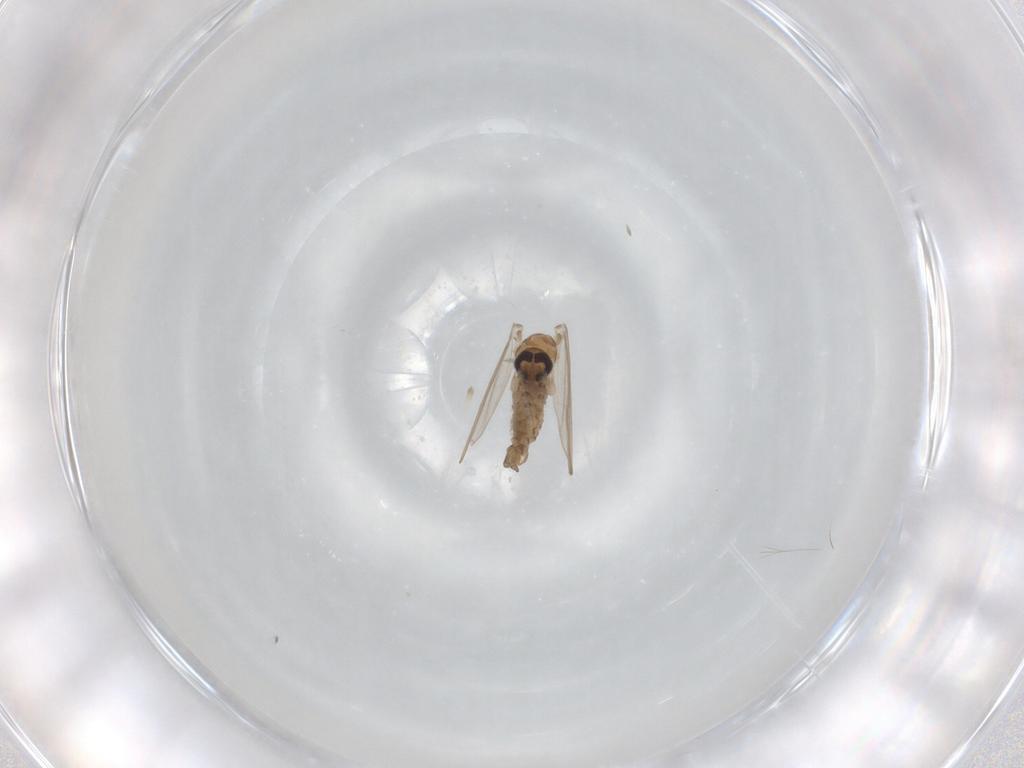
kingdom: Animalia
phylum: Arthropoda
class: Insecta
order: Diptera
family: Psychodidae
